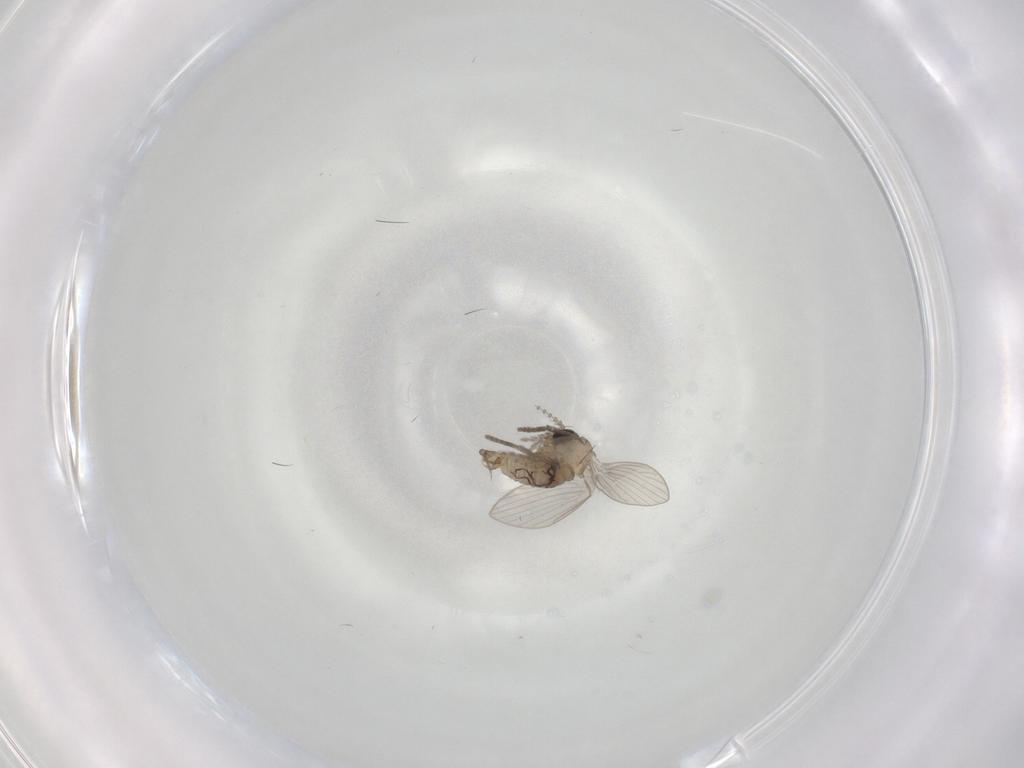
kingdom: Animalia
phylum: Arthropoda
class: Insecta
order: Diptera
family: Psychodidae
